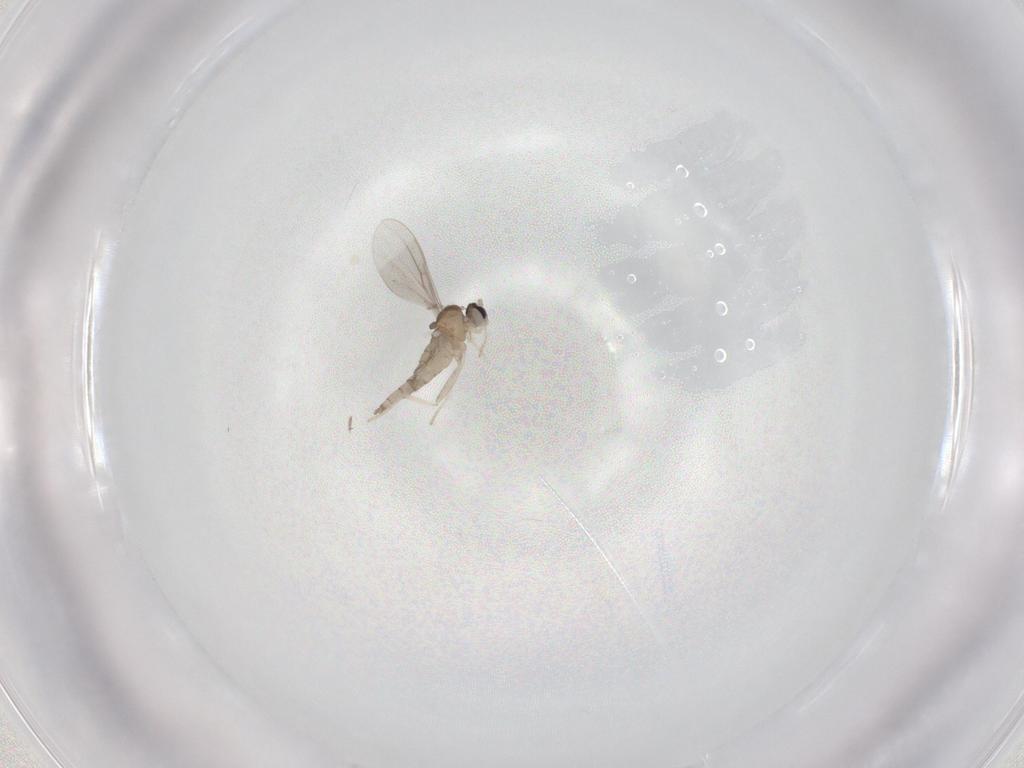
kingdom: Animalia
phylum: Arthropoda
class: Insecta
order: Diptera
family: Cecidomyiidae
